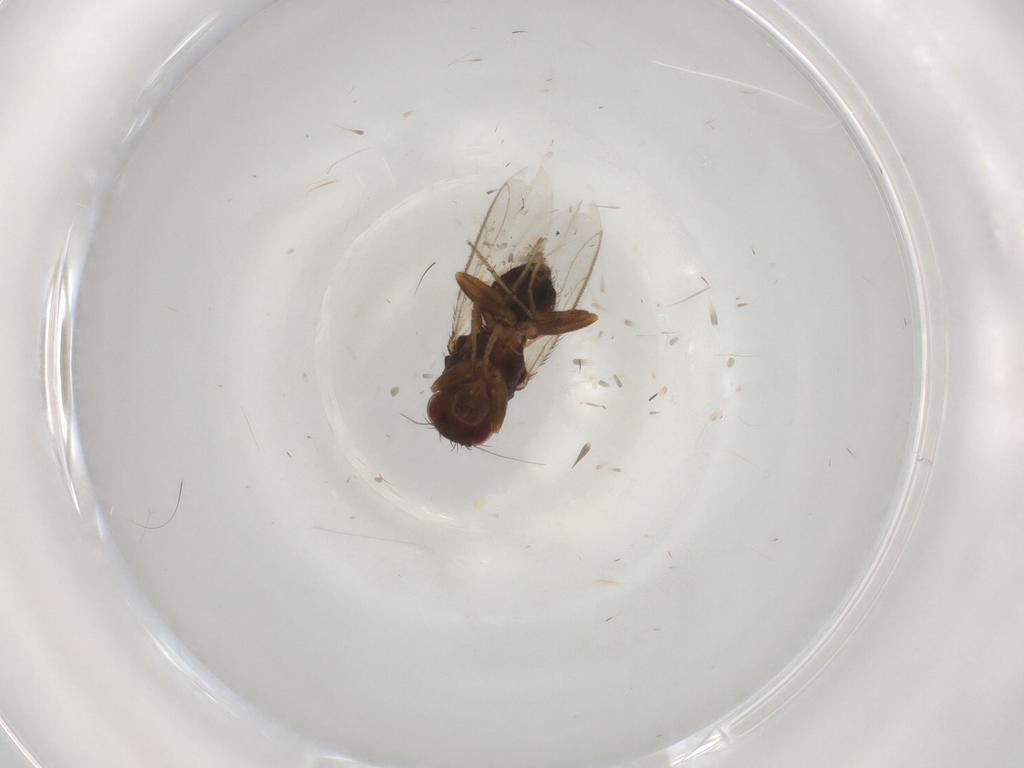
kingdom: Animalia
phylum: Arthropoda
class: Insecta
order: Diptera
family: Sphaeroceridae
